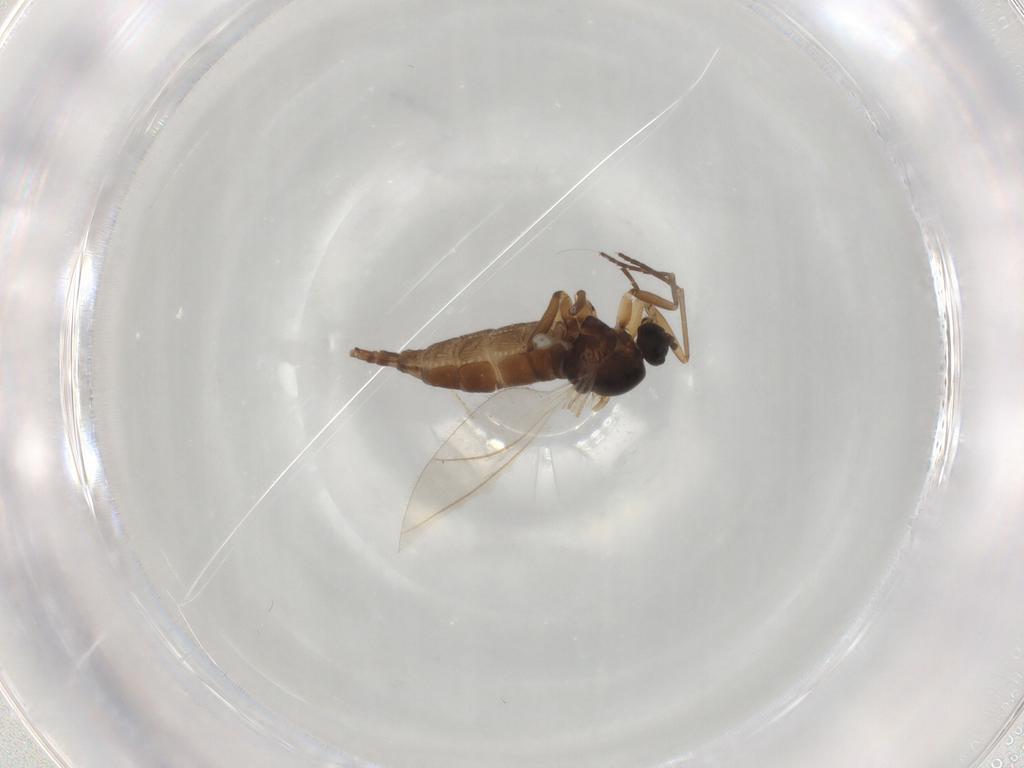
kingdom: Animalia
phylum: Arthropoda
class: Insecta
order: Diptera
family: Sciaridae
